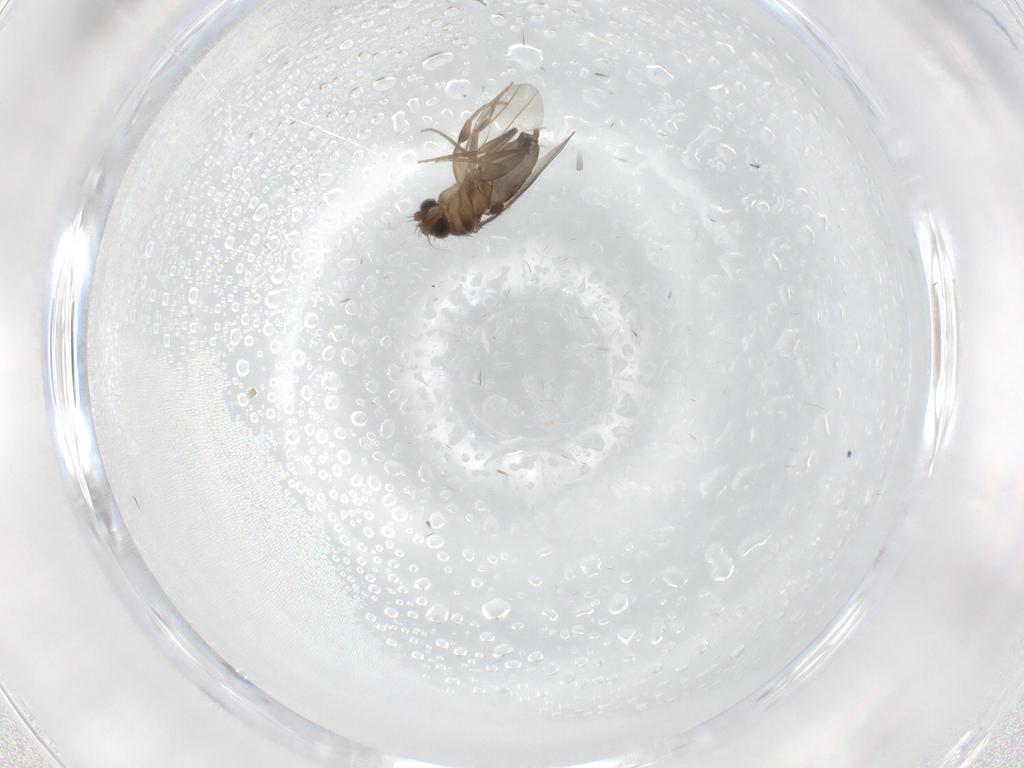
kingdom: Animalia
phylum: Arthropoda
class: Insecta
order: Diptera
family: Phoridae
